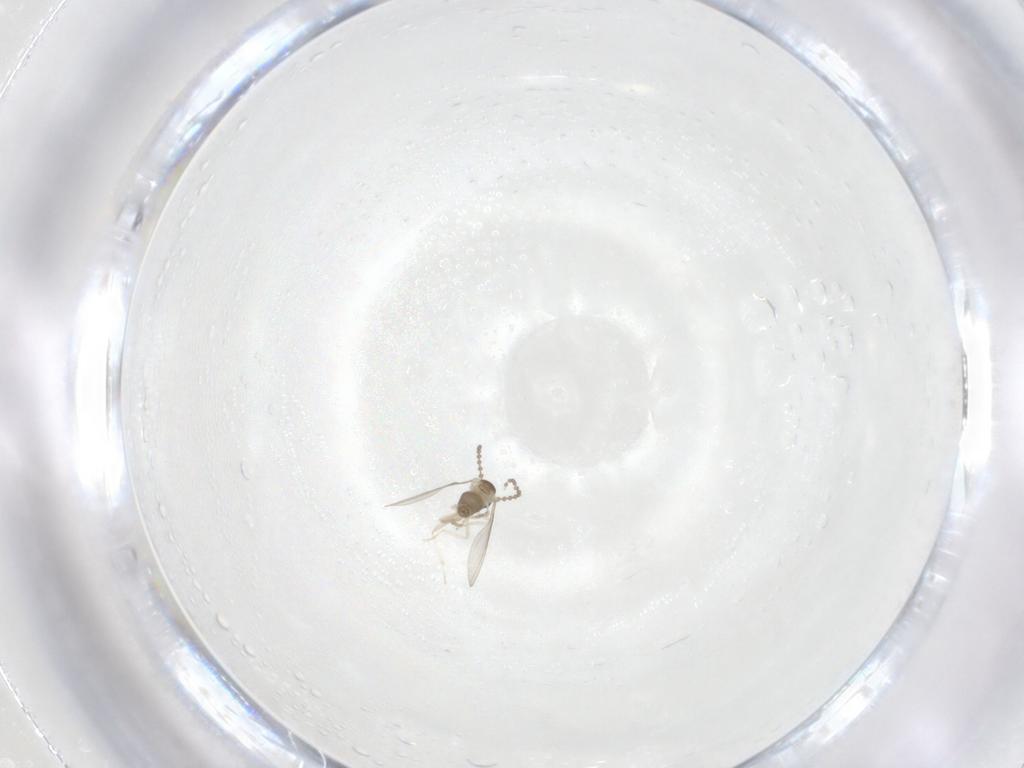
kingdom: Animalia
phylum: Arthropoda
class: Insecta
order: Diptera
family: Cecidomyiidae
